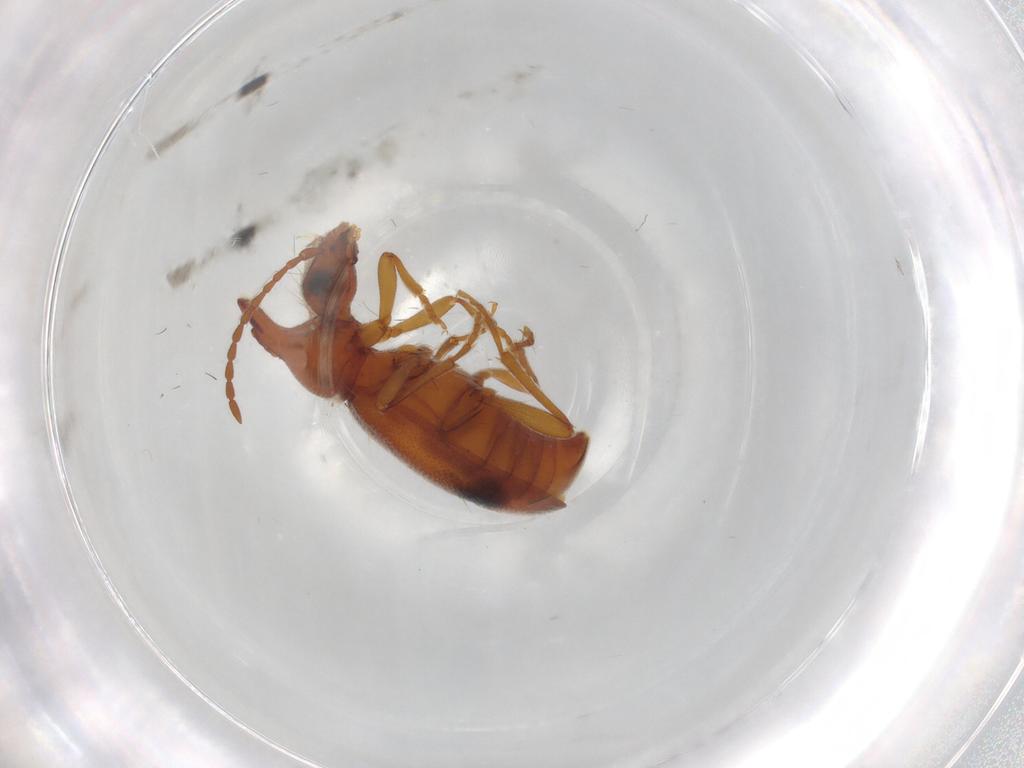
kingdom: Animalia
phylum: Arthropoda
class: Insecta
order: Coleoptera
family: Anthicidae
